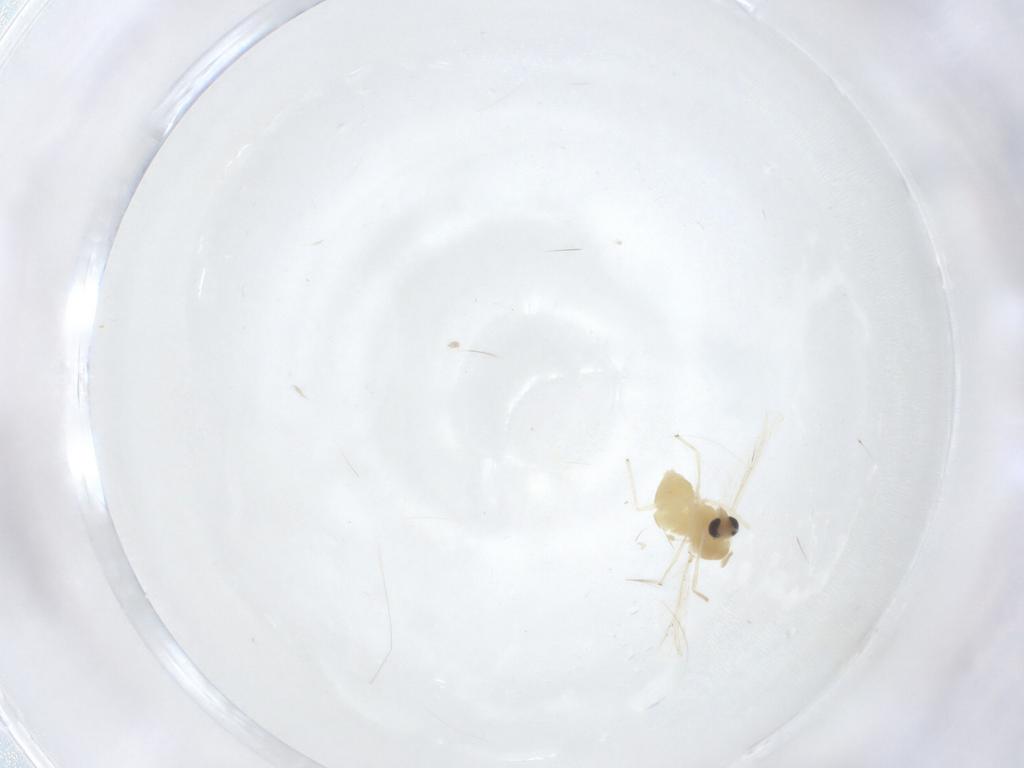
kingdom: Animalia
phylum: Arthropoda
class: Insecta
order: Diptera
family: Chironomidae
